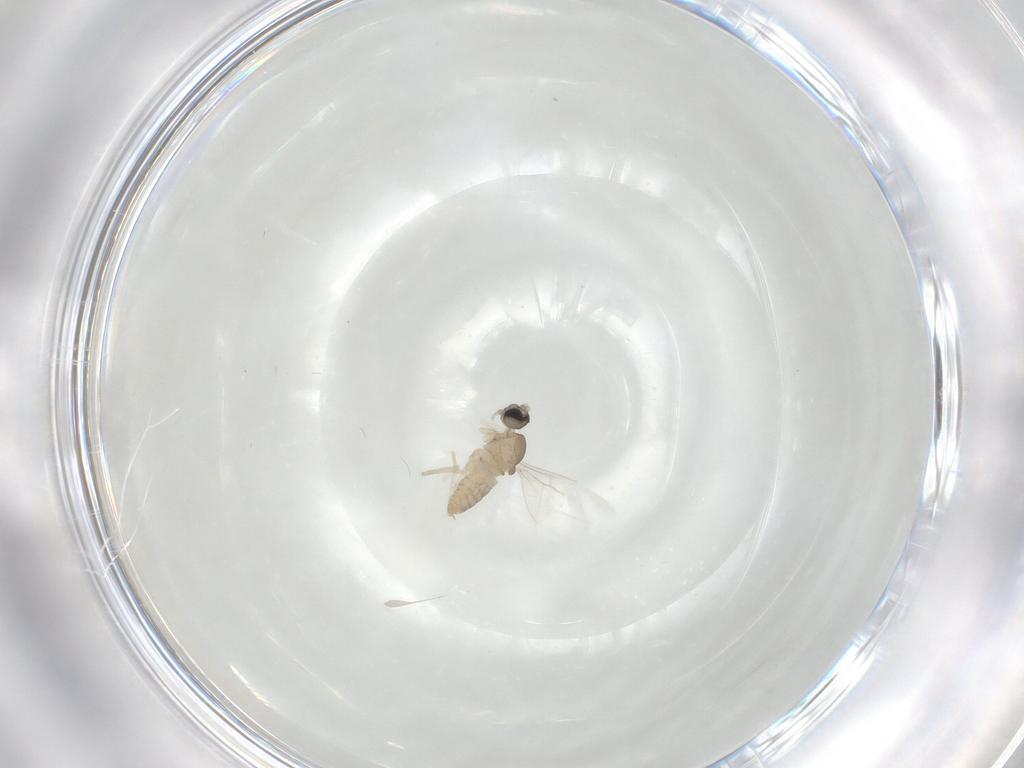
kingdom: Animalia
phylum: Arthropoda
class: Insecta
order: Diptera
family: Cecidomyiidae
